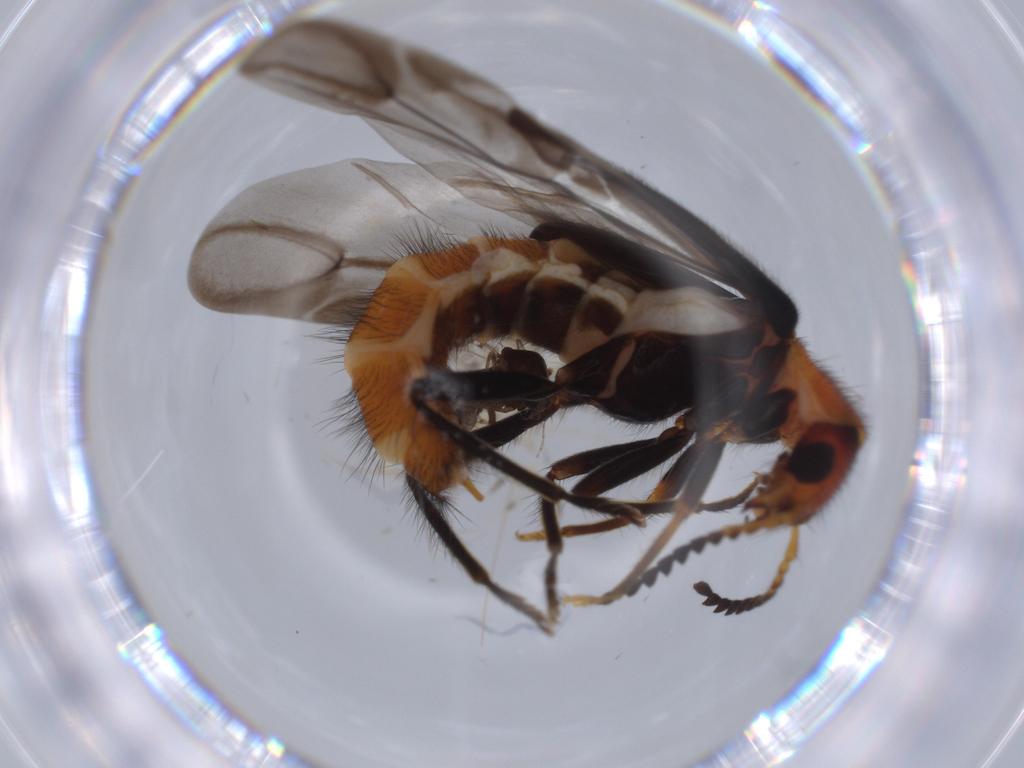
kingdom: Animalia
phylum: Arthropoda
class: Insecta
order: Coleoptera
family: Melyridae
